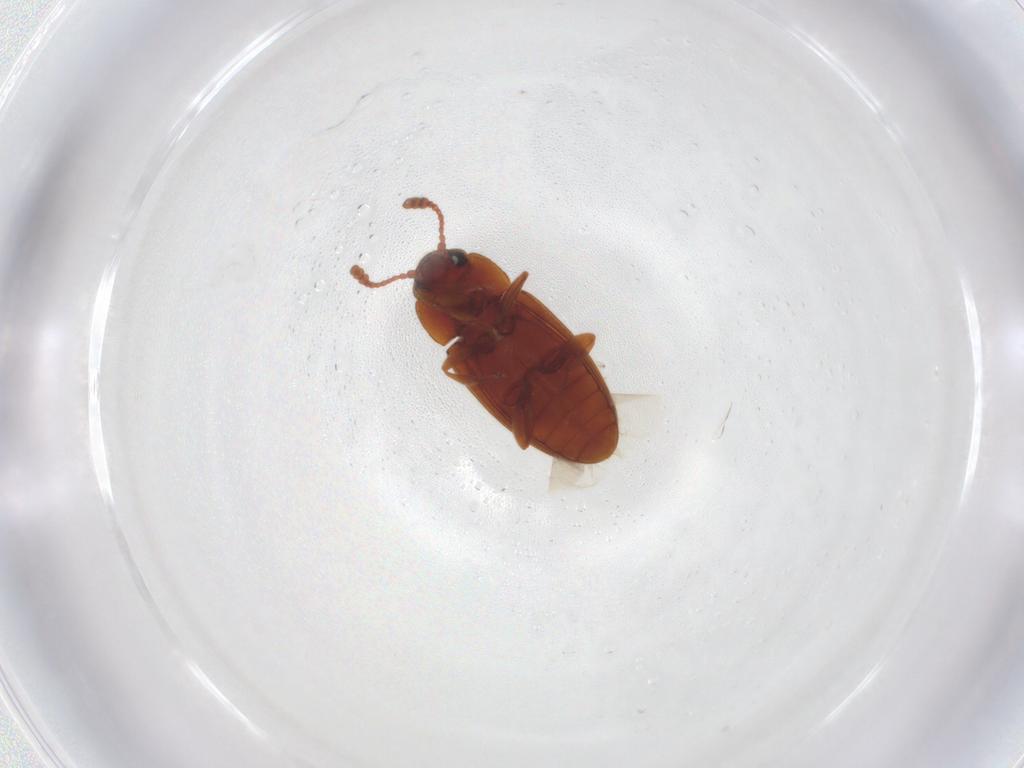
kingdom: Animalia
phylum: Arthropoda
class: Insecta
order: Coleoptera
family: Erotylidae
